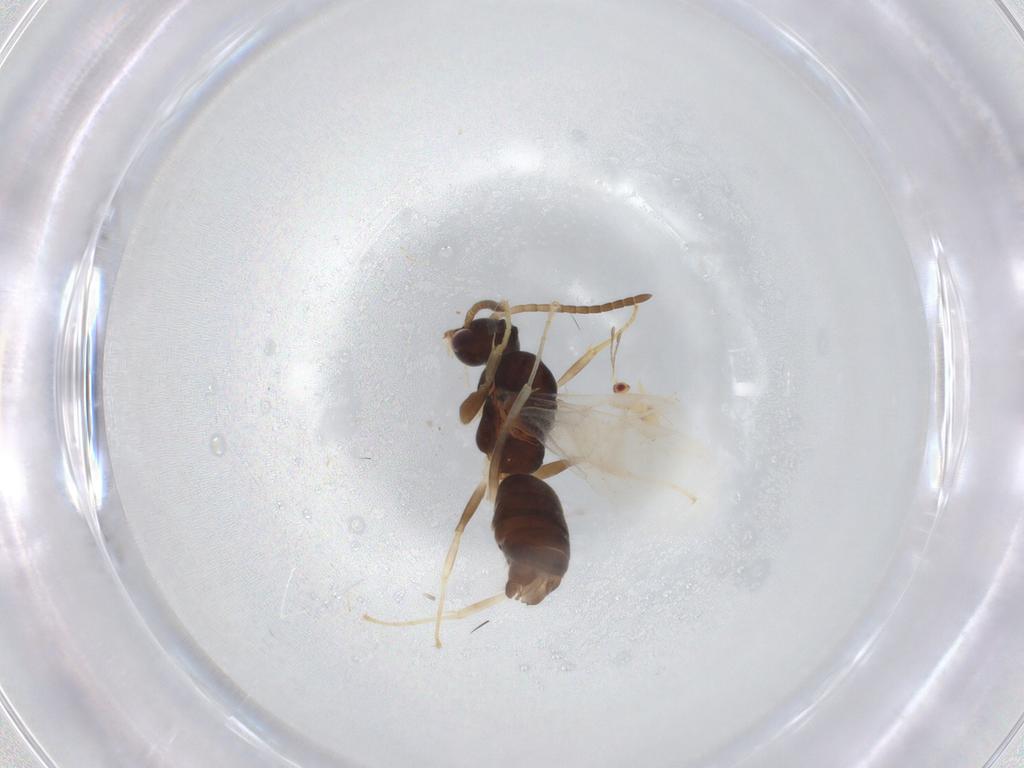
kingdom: Animalia
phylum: Arthropoda
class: Insecta
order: Hymenoptera
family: Formicidae
